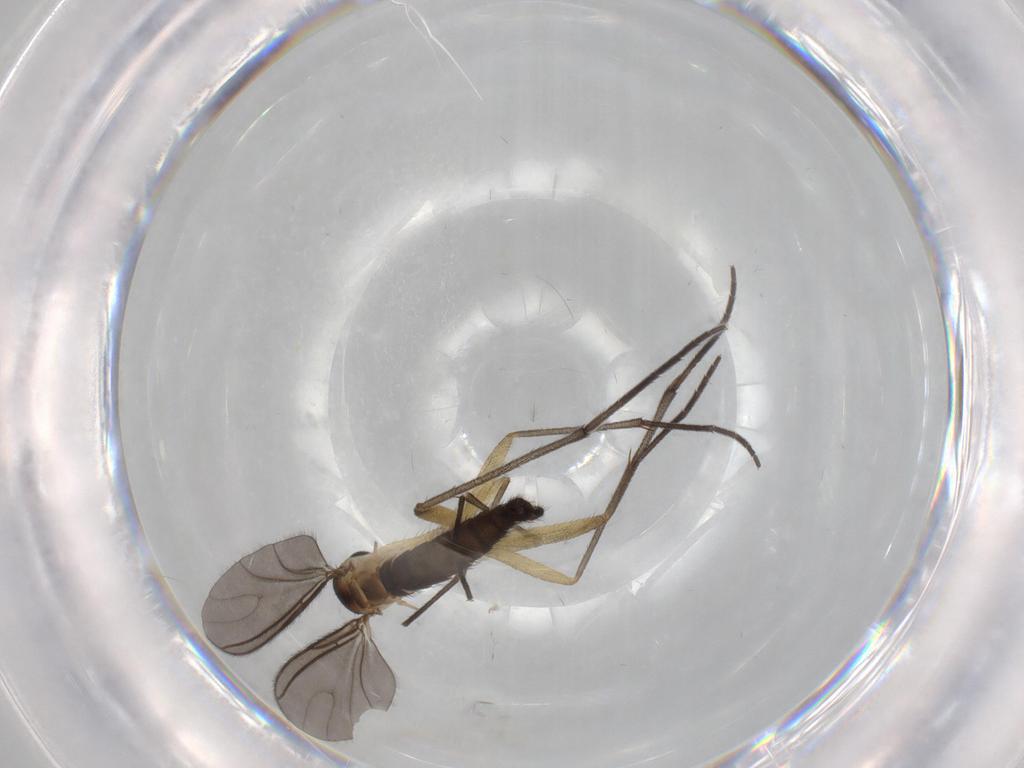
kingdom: Animalia
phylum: Arthropoda
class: Insecta
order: Diptera
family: Sciaridae
